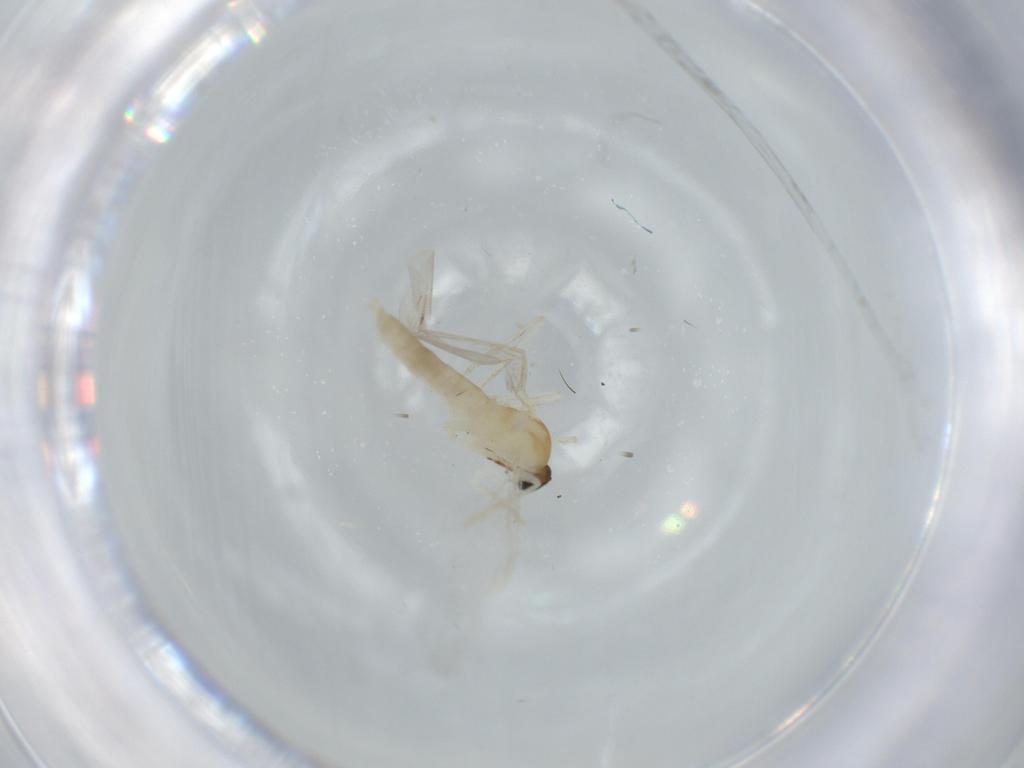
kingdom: Animalia
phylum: Arthropoda
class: Insecta
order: Diptera
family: Cecidomyiidae
